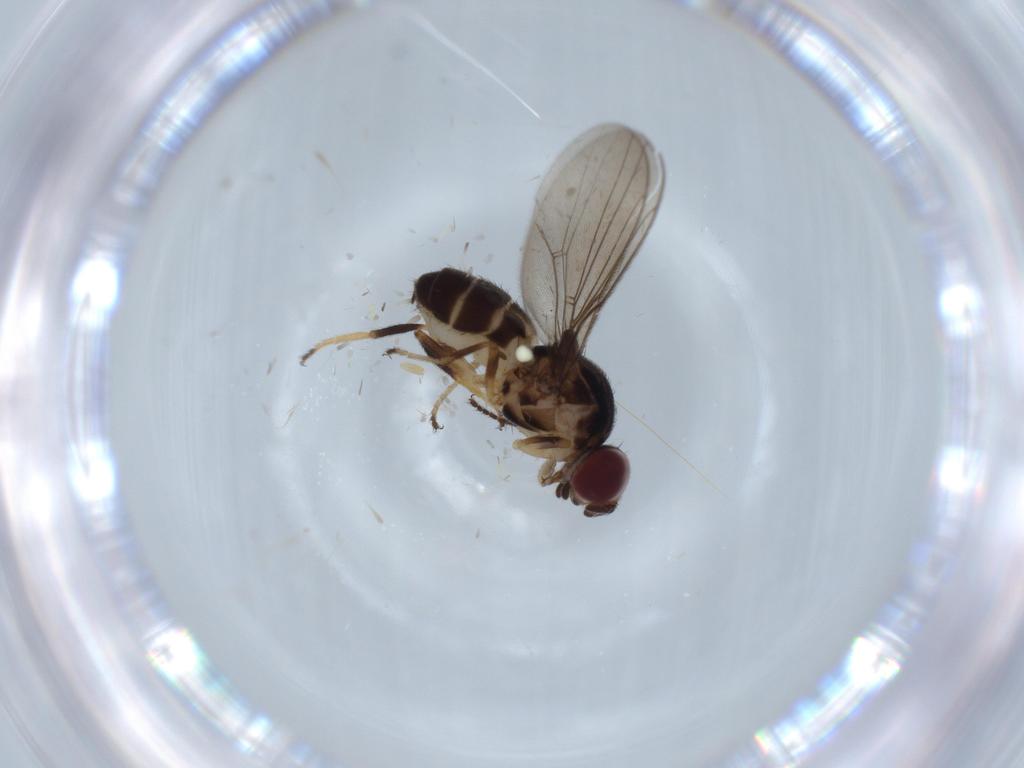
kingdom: Animalia
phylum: Arthropoda
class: Insecta
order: Diptera
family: Chloropidae
